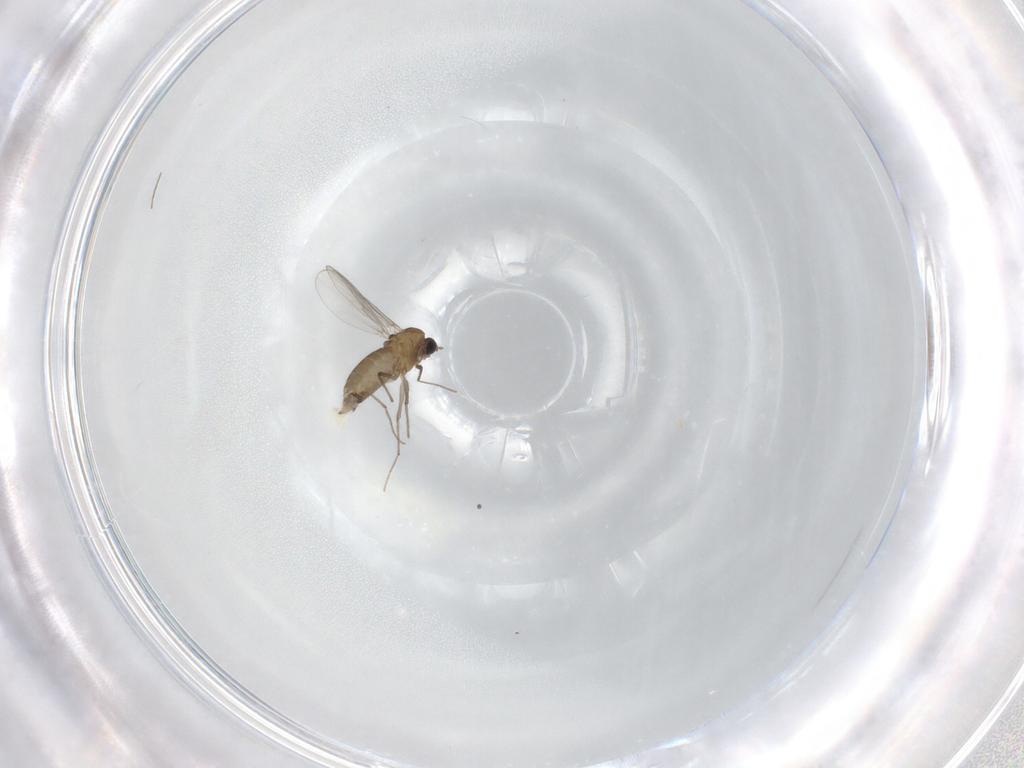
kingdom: Animalia
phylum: Arthropoda
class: Insecta
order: Diptera
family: Chironomidae
